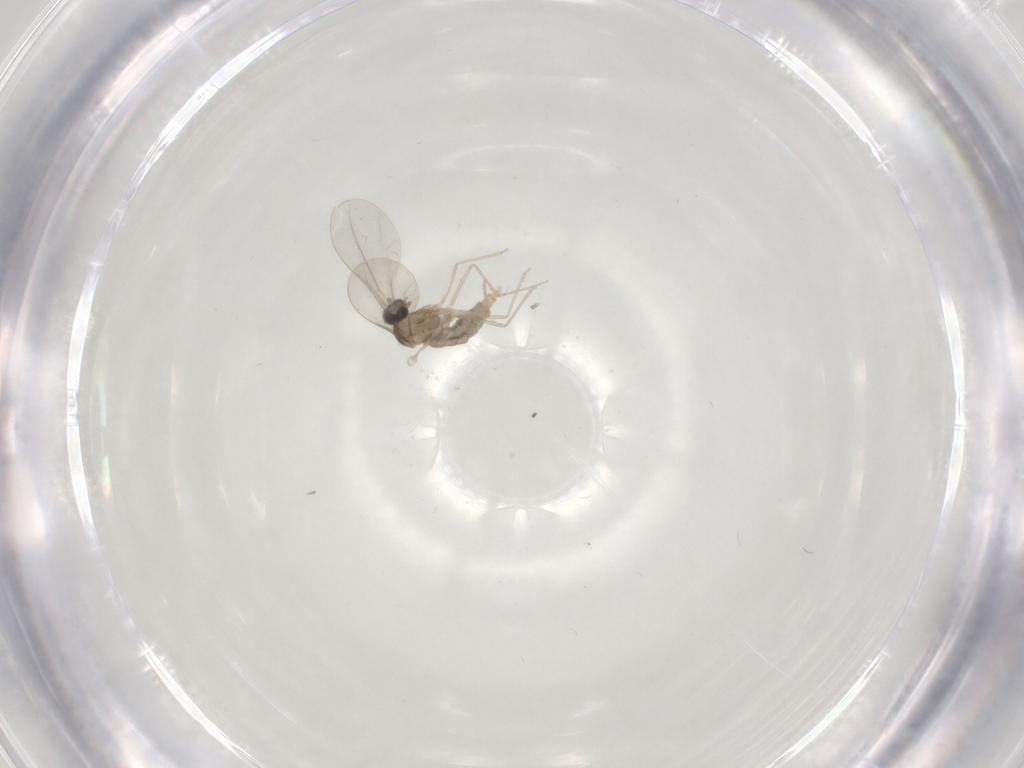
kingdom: Animalia
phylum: Arthropoda
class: Insecta
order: Diptera
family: Cecidomyiidae
